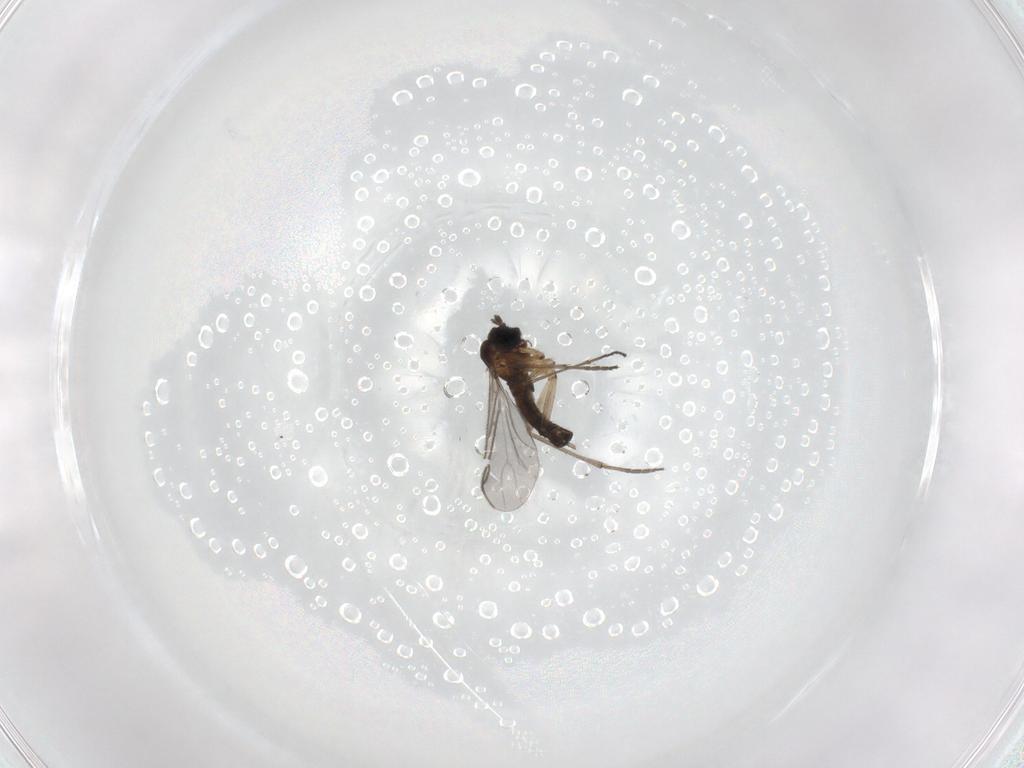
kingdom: Animalia
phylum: Arthropoda
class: Insecta
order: Diptera
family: Sciaridae
